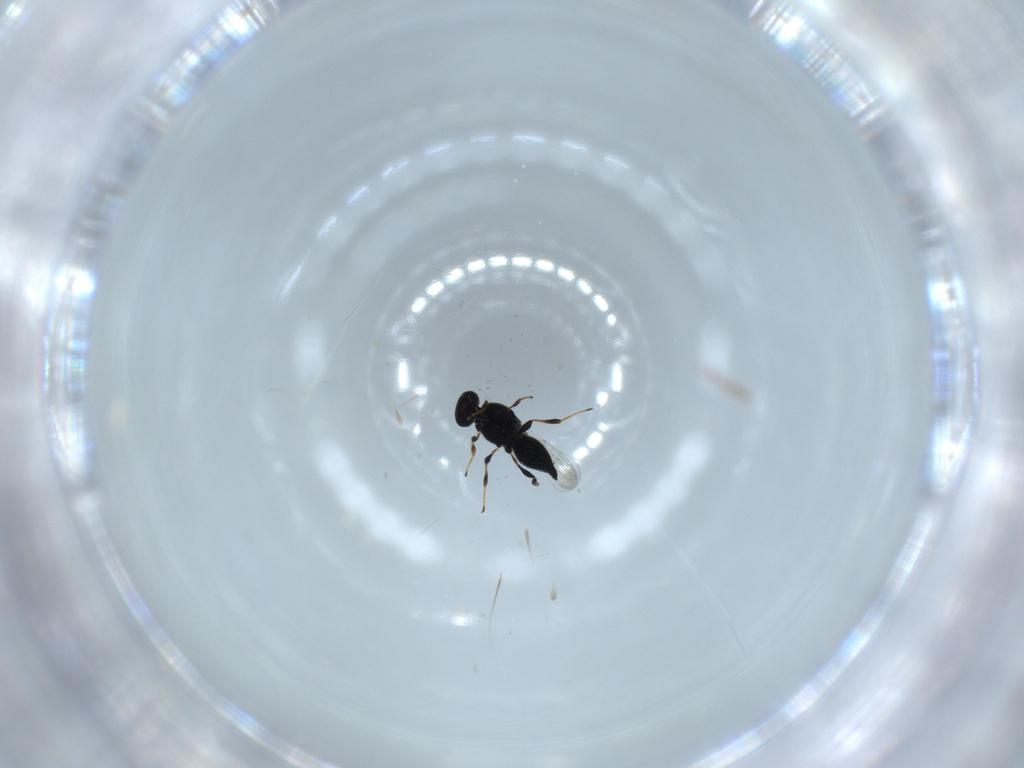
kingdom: Animalia
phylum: Arthropoda
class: Insecta
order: Hymenoptera
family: Platygastridae
